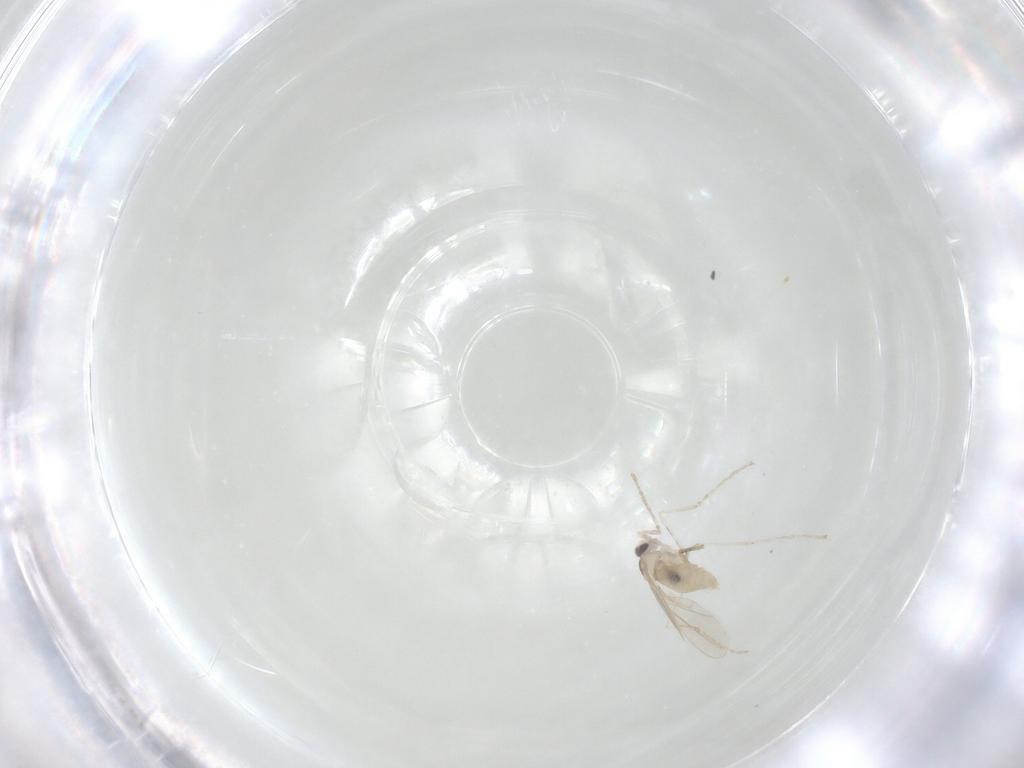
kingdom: Animalia
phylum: Arthropoda
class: Insecta
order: Diptera
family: Cecidomyiidae
